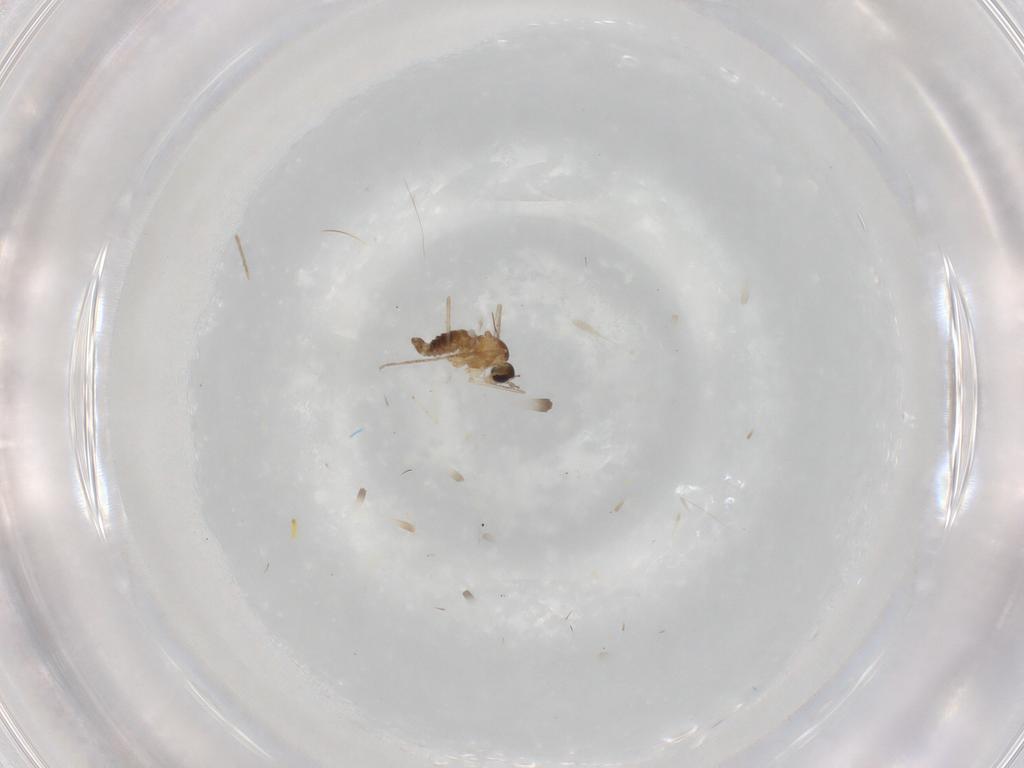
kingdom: Animalia
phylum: Arthropoda
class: Insecta
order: Diptera
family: Cecidomyiidae
